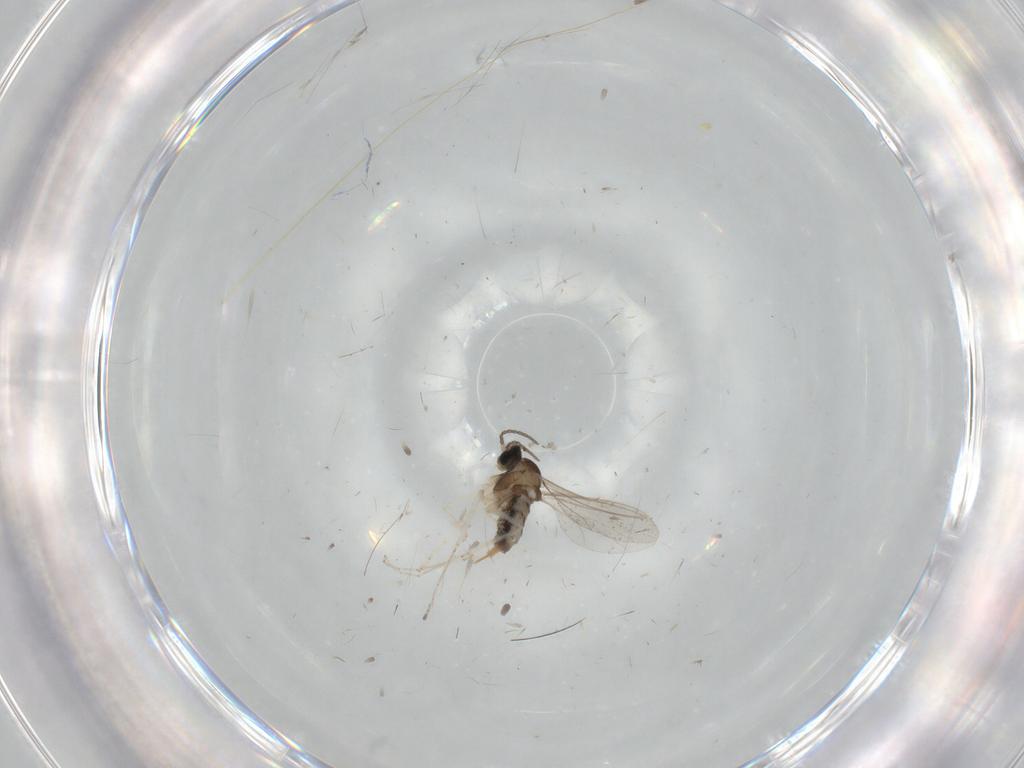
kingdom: Animalia
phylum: Arthropoda
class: Insecta
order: Diptera
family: Cecidomyiidae
